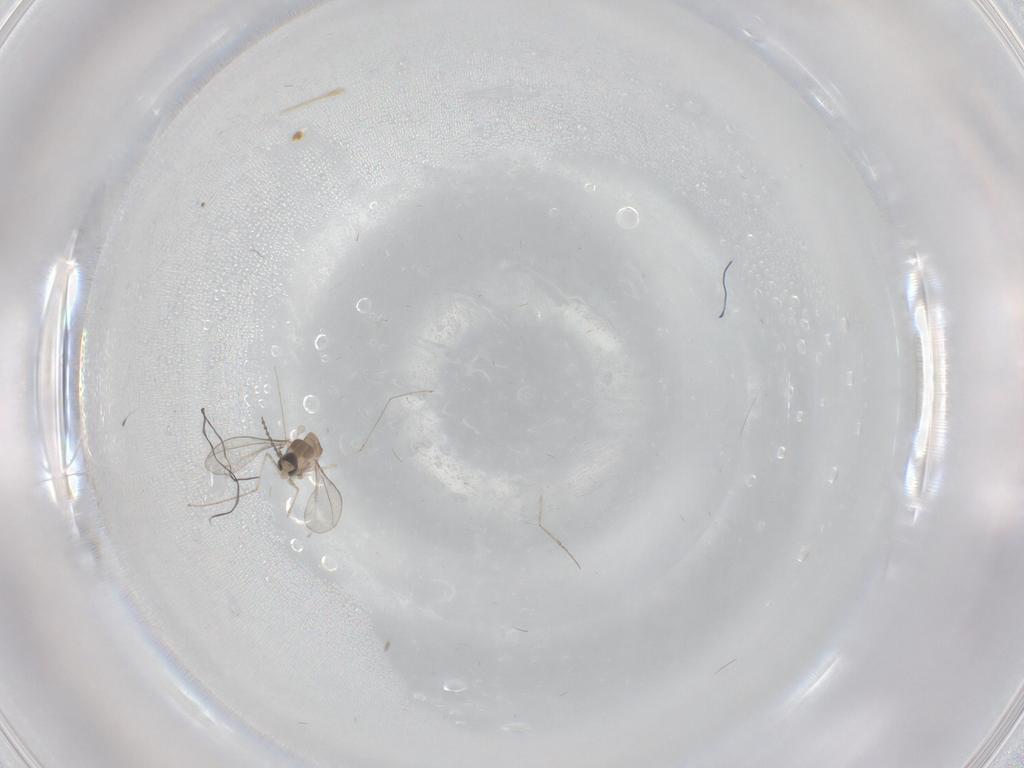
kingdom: Animalia
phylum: Arthropoda
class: Insecta
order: Diptera
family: Cecidomyiidae
